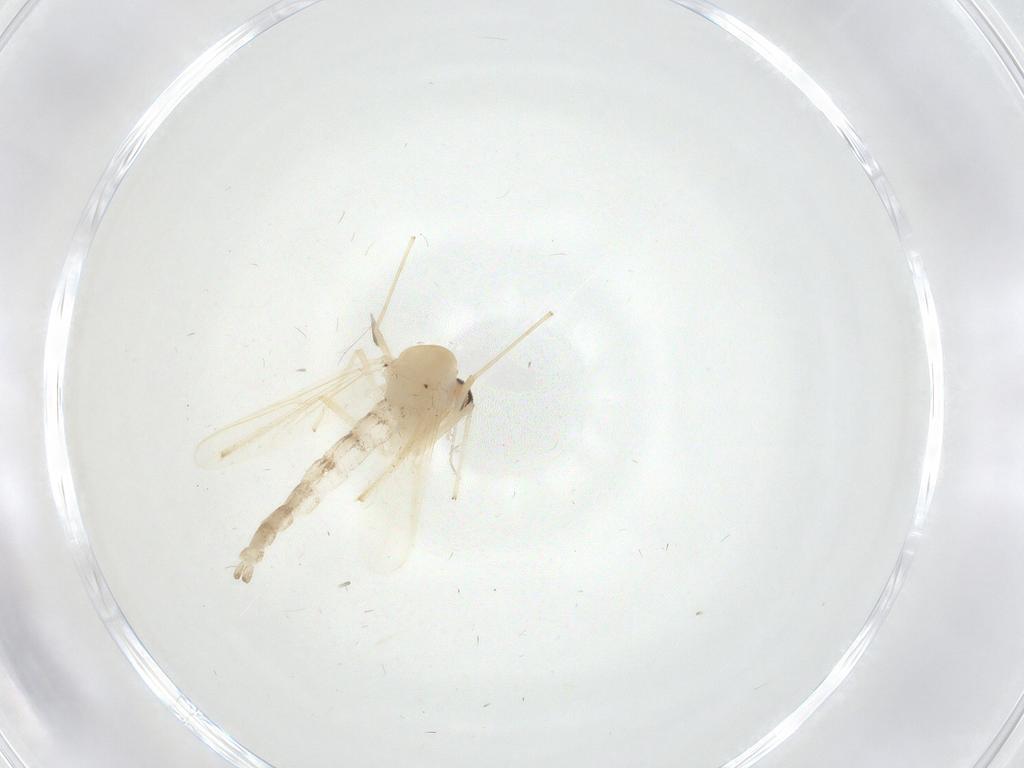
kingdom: Animalia
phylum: Arthropoda
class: Insecta
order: Diptera
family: Chironomidae
